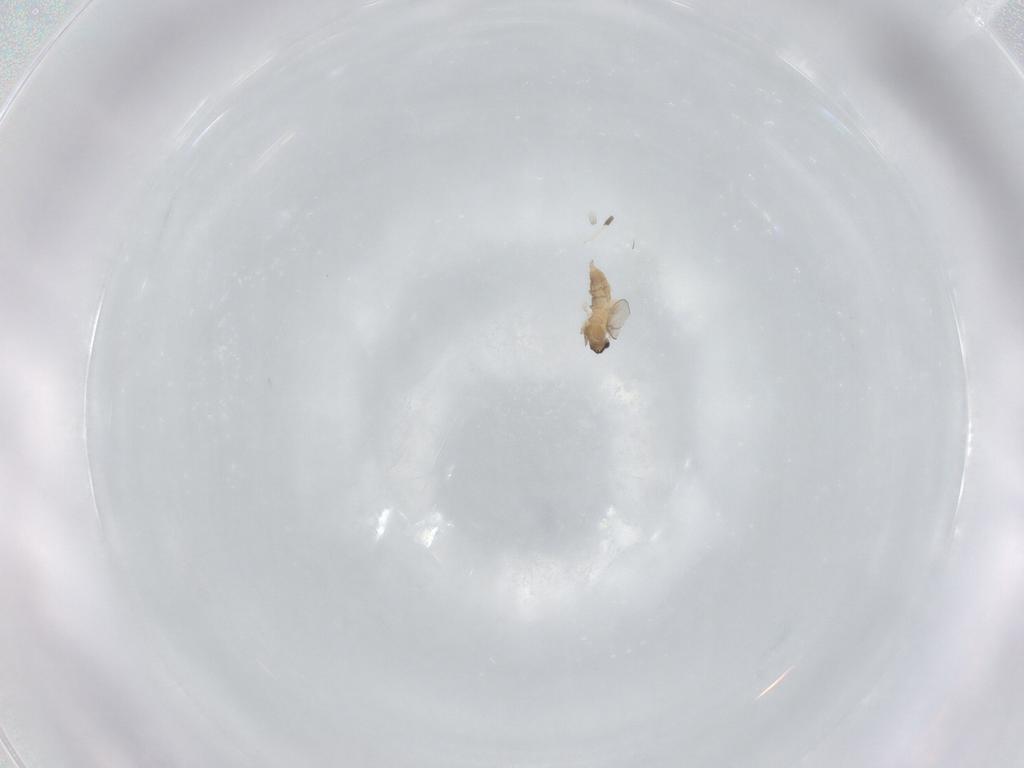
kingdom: Animalia
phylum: Arthropoda
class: Insecta
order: Diptera
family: Cecidomyiidae
